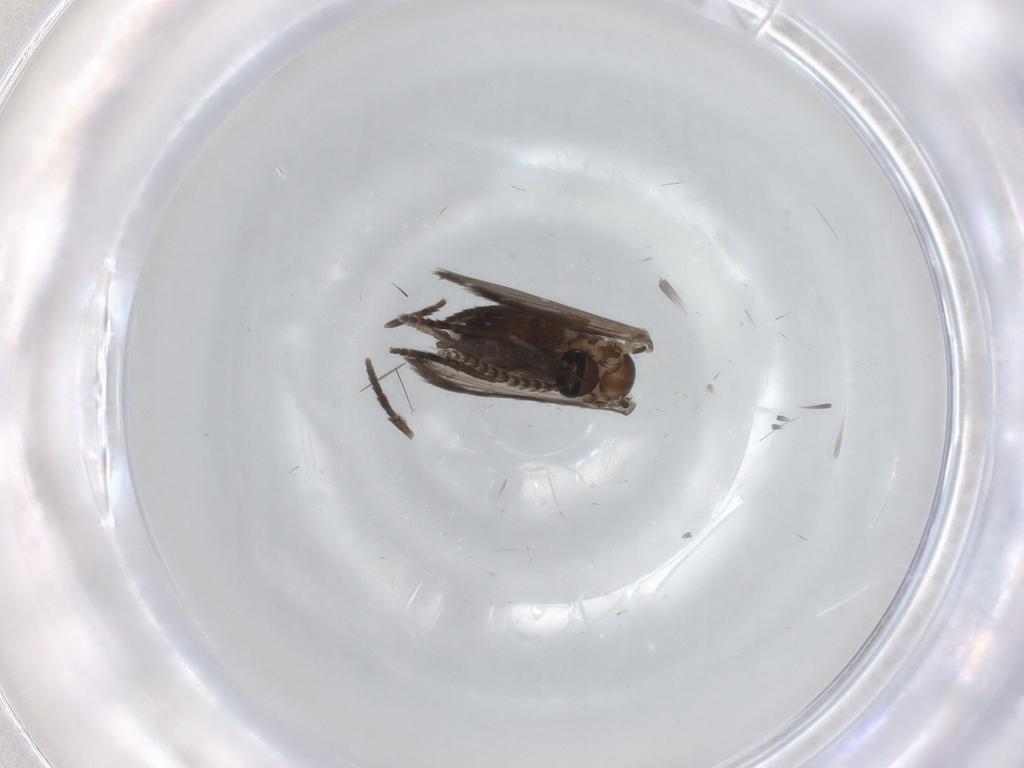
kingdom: Animalia
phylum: Arthropoda
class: Insecta
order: Diptera
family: Psychodidae
